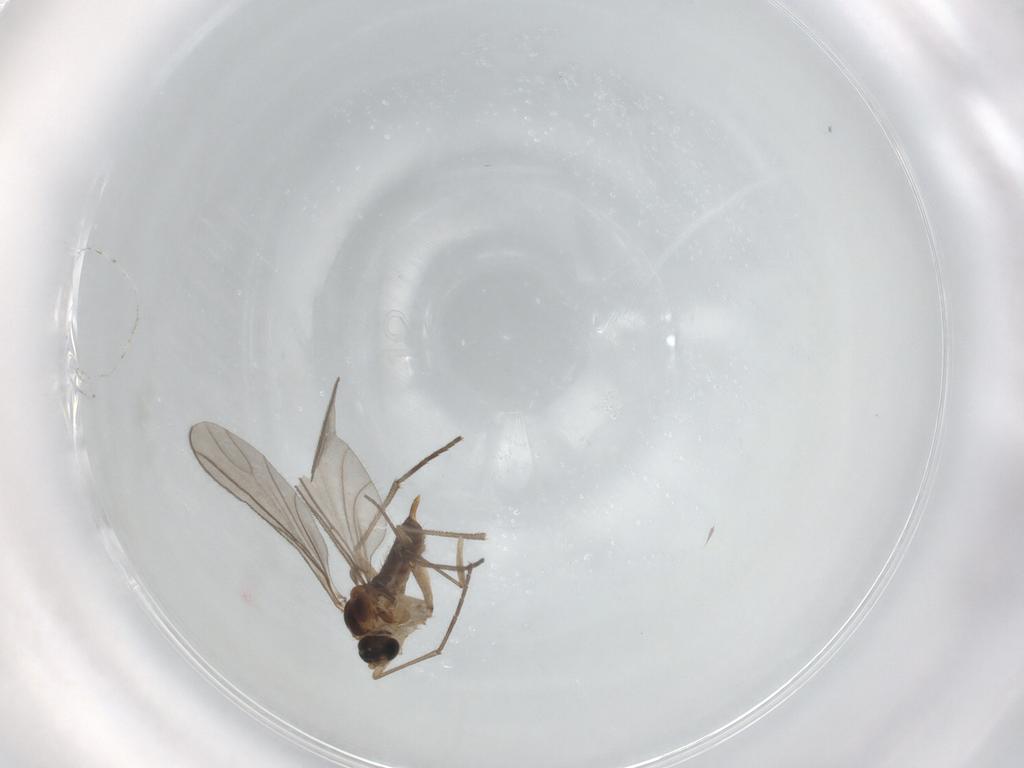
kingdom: Animalia
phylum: Arthropoda
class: Insecta
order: Diptera
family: Sciaridae
